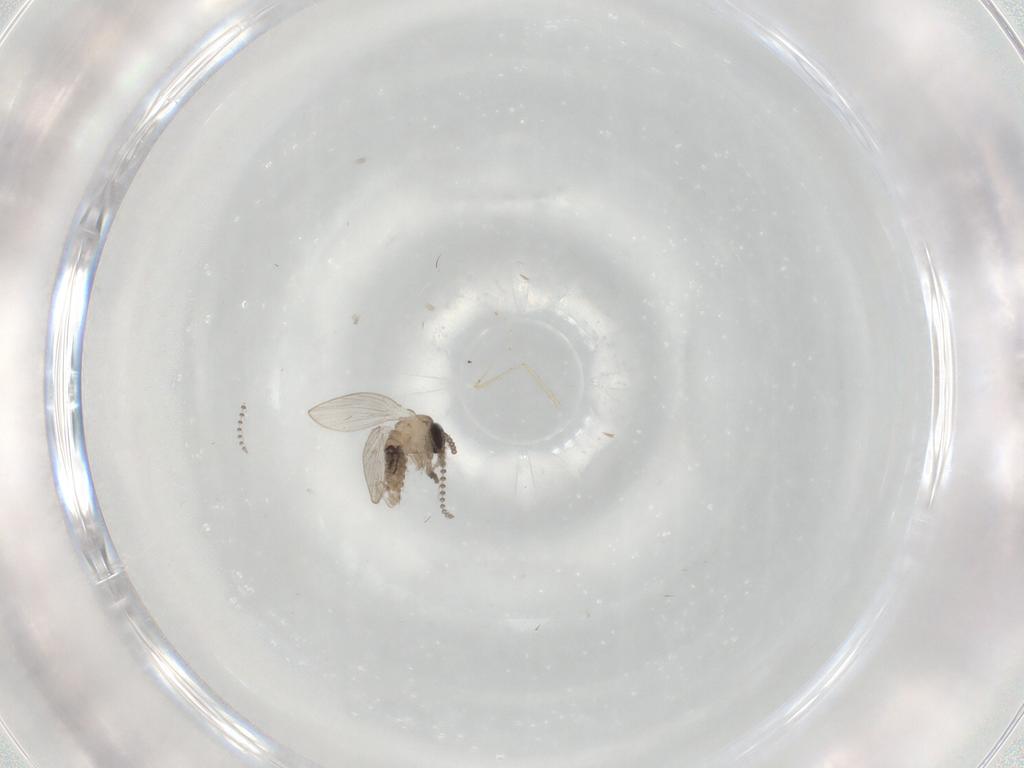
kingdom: Animalia
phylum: Arthropoda
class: Insecta
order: Diptera
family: Psychodidae
